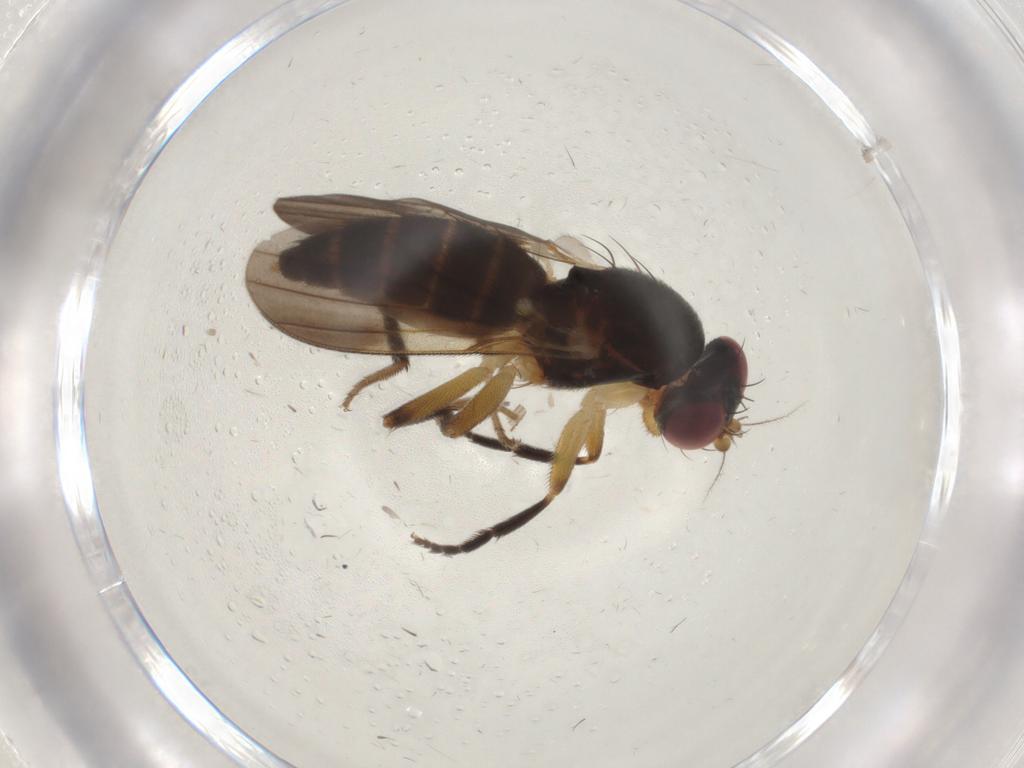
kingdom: Animalia
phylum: Arthropoda
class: Insecta
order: Diptera
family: Clusiidae
